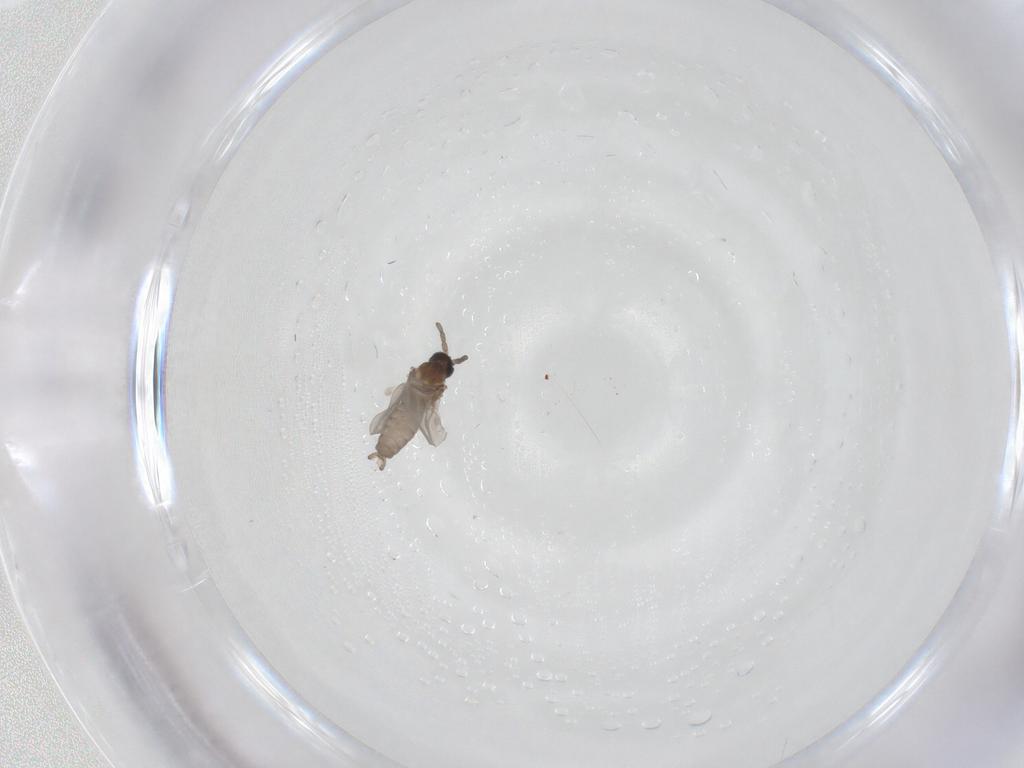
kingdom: Animalia
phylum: Arthropoda
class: Insecta
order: Diptera
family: Cecidomyiidae
